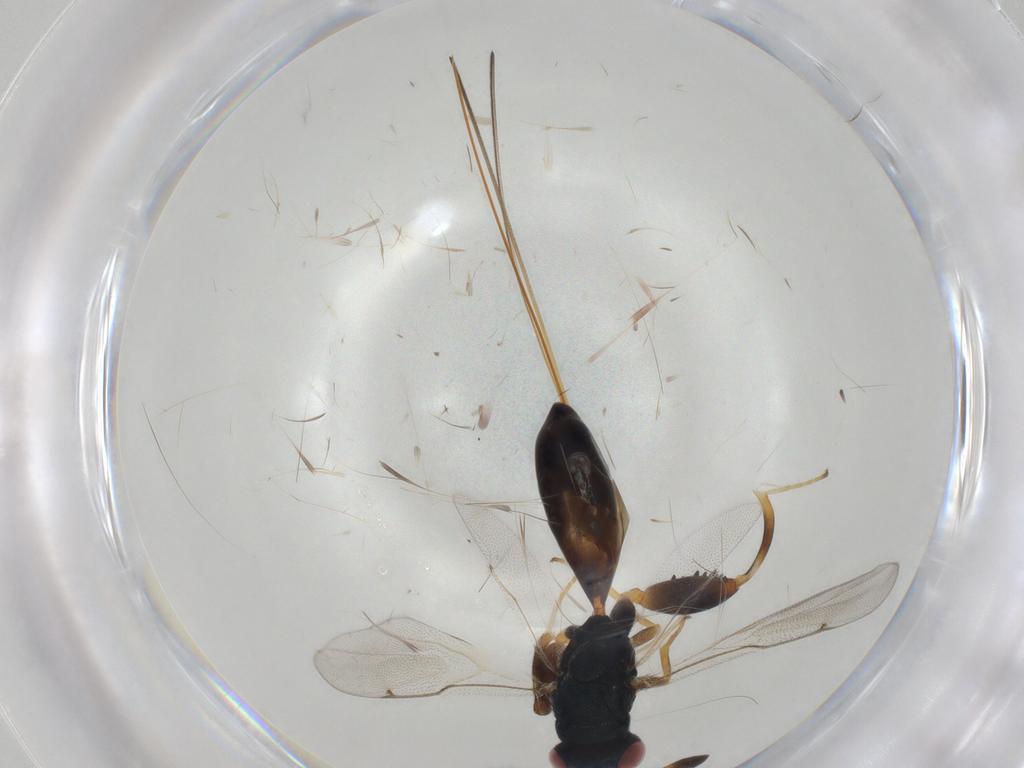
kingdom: Animalia
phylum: Arthropoda
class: Insecta
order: Hymenoptera
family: Torymidae
